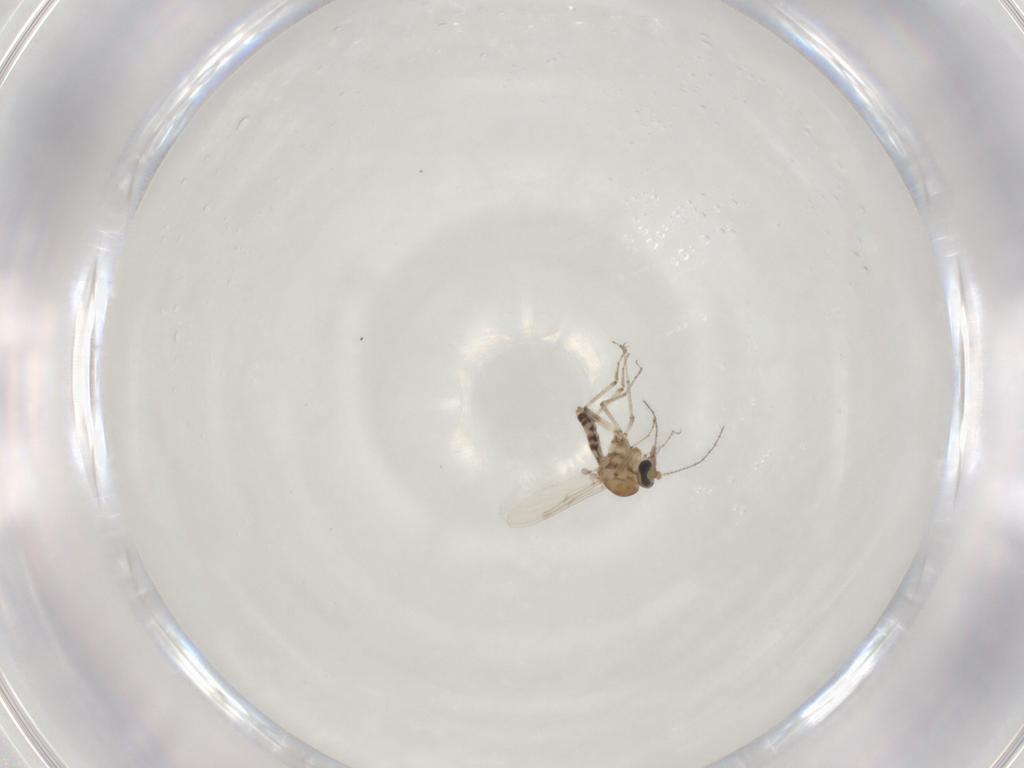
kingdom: Animalia
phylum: Arthropoda
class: Insecta
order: Diptera
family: Ceratopogonidae
